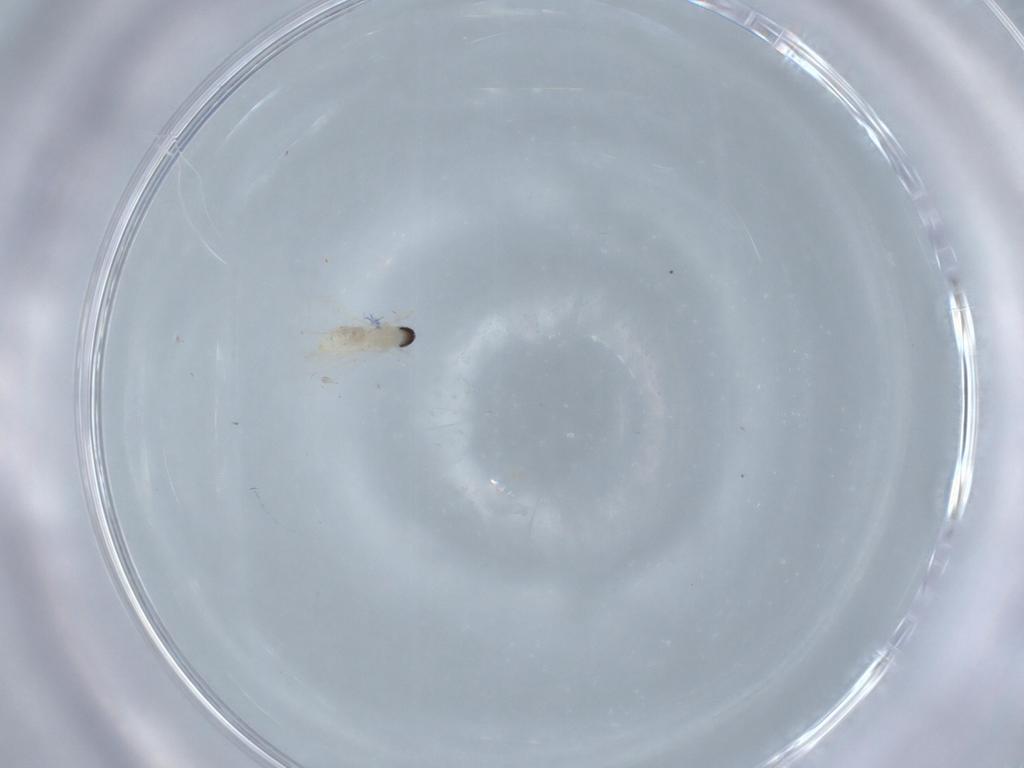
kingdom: Animalia
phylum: Arthropoda
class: Insecta
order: Diptera
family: Cecidomyiidae
